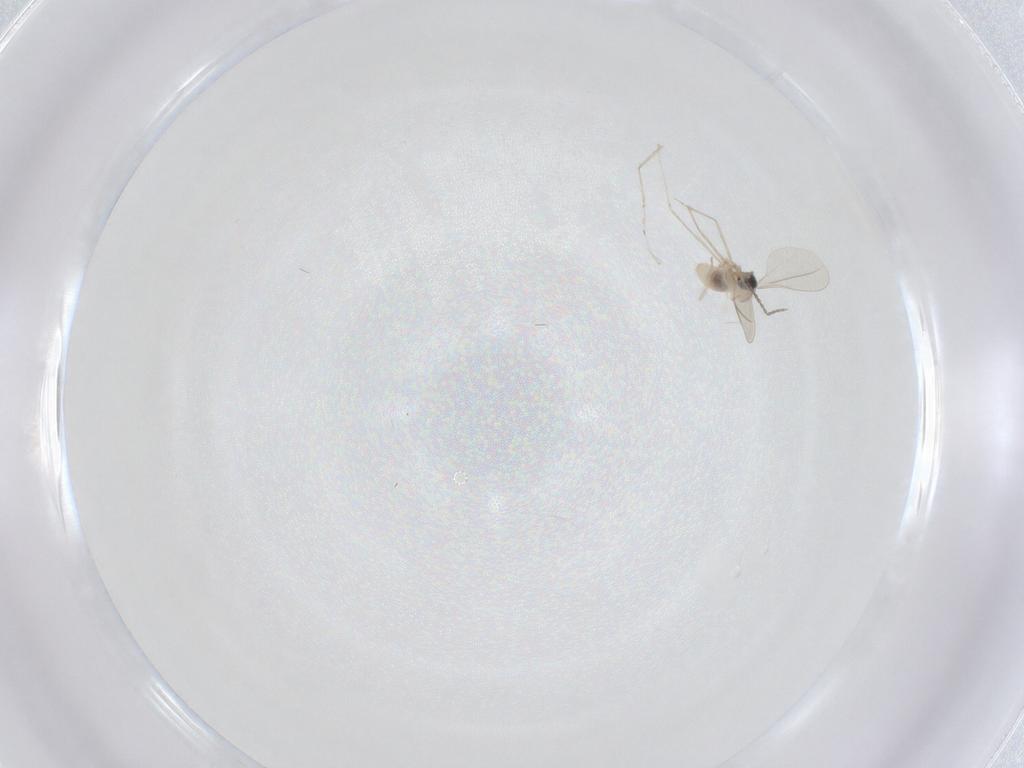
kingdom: Animalia
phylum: Arthropoda
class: Insecta
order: Diptera
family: Cecidomyiidae
